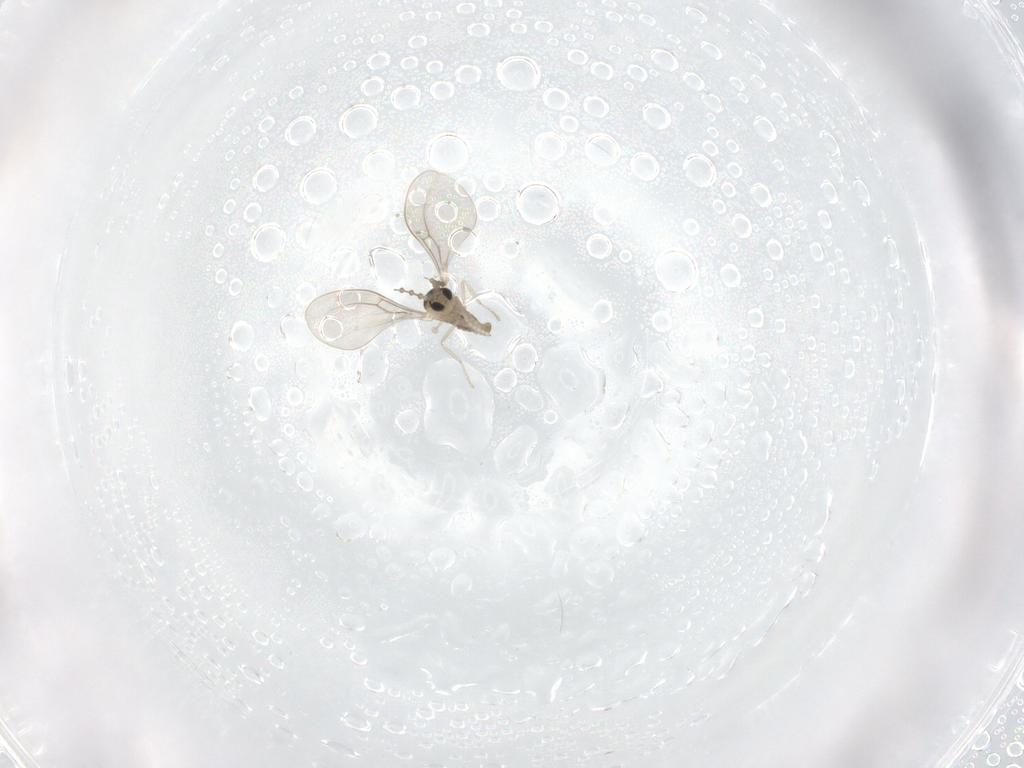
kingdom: Animalia
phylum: Arthropoda
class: Insecta
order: Diptera
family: Cecidomyiidae
